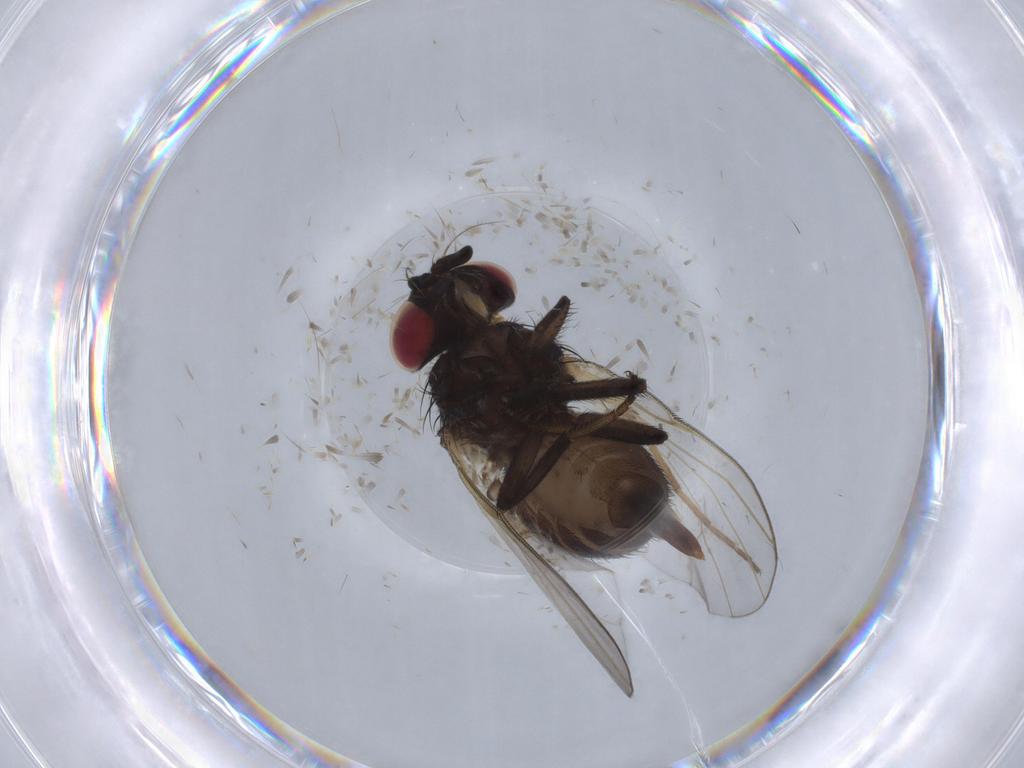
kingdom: Animalia
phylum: Arthropoda
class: Insecta
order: Diptera
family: Lonchaeidae
